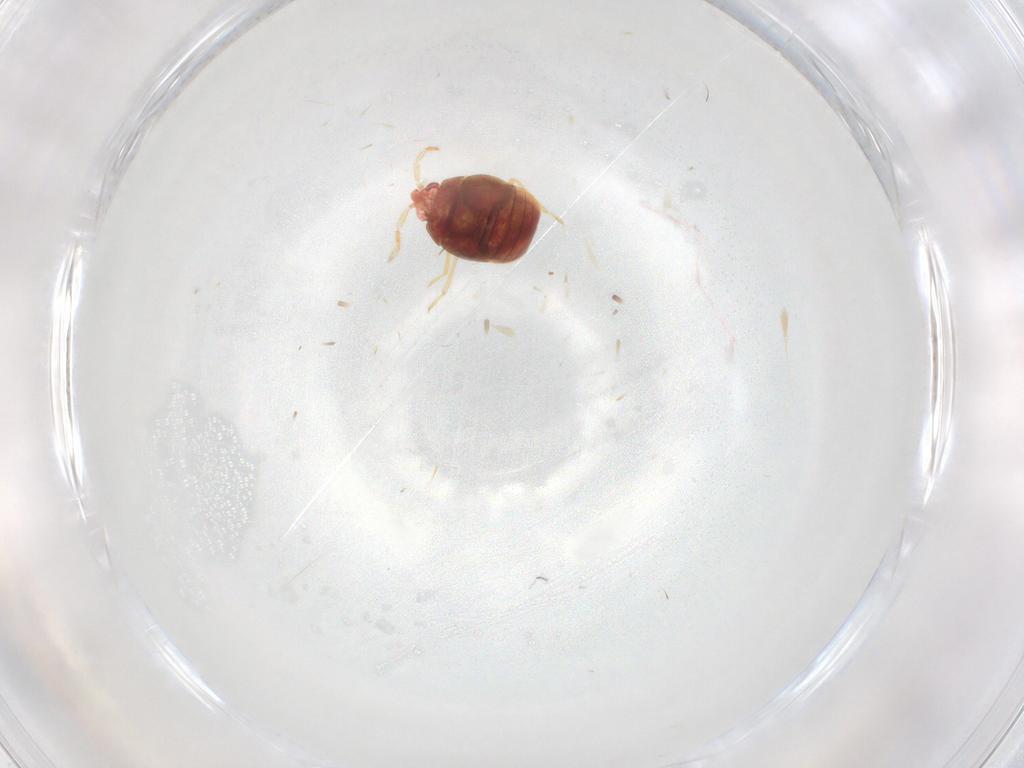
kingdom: Animalia
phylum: Arthropoda
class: Insecta
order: Hemiptera
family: Anthocoridae
